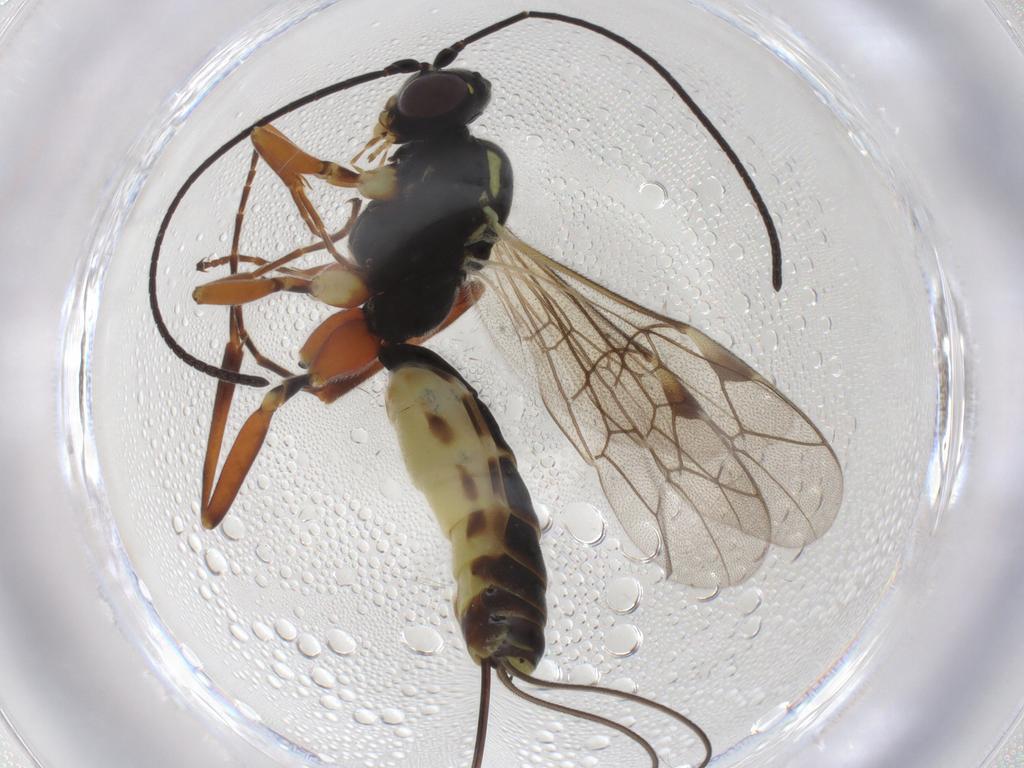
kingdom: Animalia
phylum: Arthropoda
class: Insecta
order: Hymenoptera
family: Ichneumonidae
